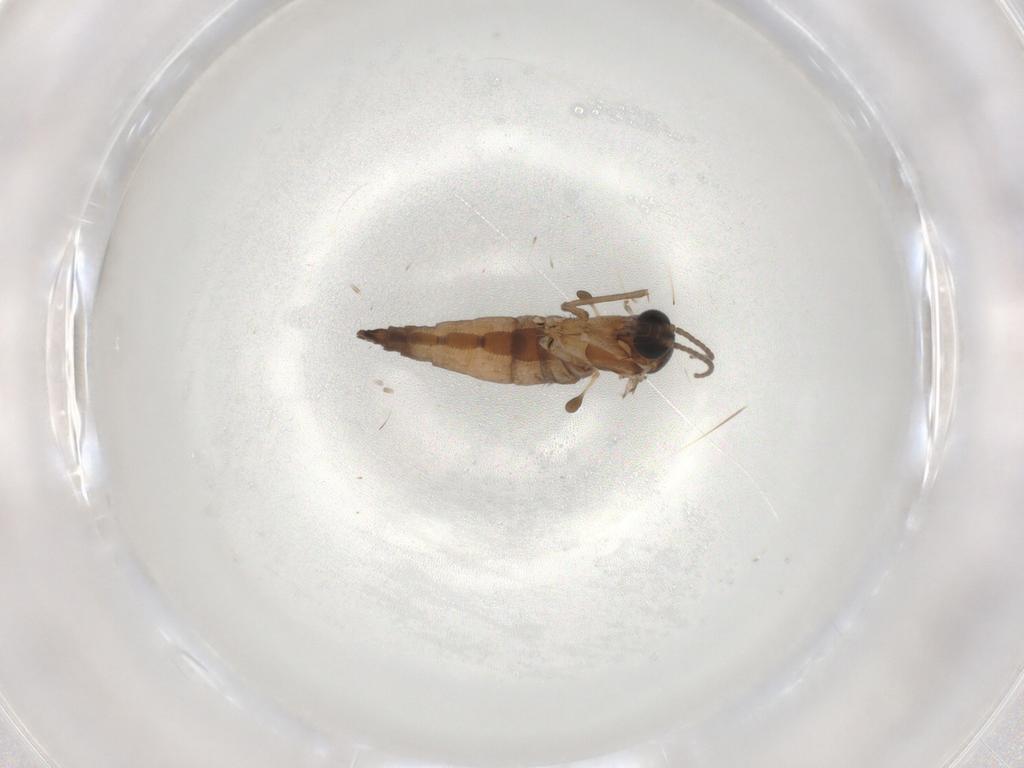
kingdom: Animalia
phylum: Arthropoda
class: Insecta
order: Diptera
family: Sciaridae
